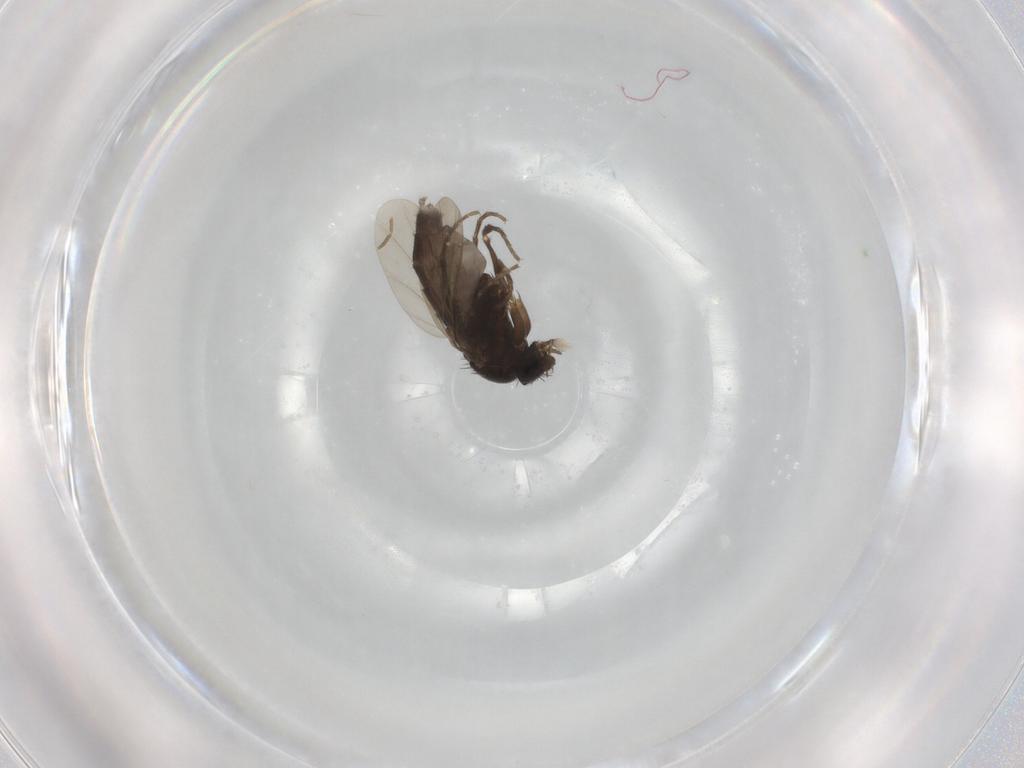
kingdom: Animalia
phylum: Arthropoda
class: Insecta
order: Diptera
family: Phoridae
